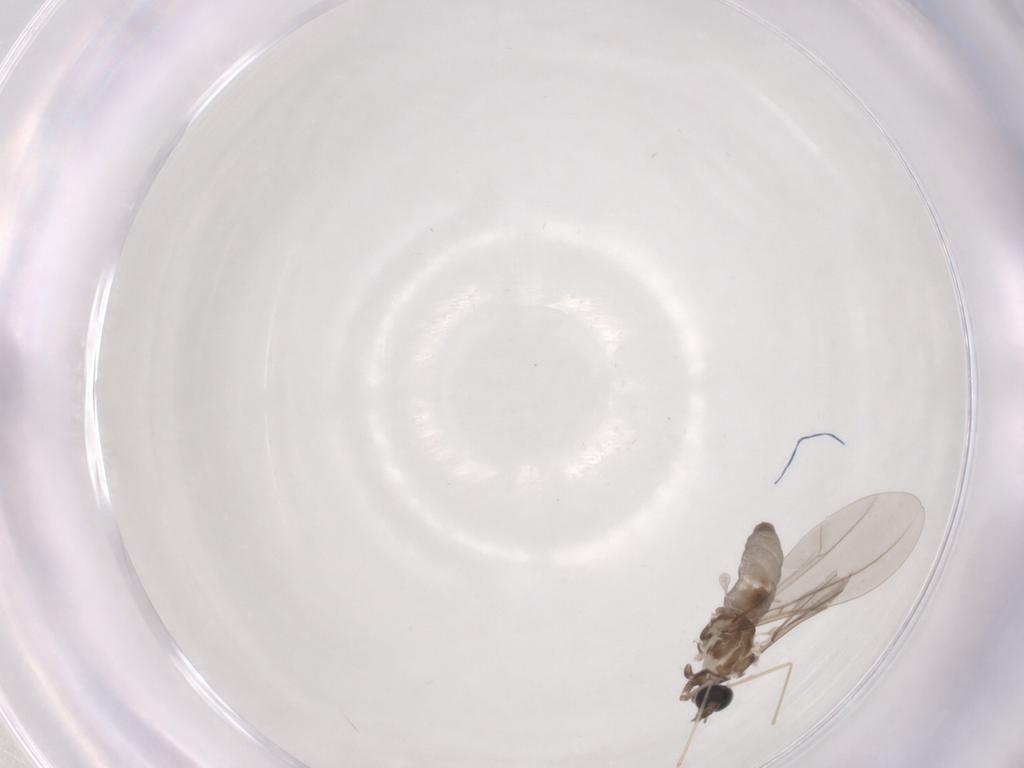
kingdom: Animalia
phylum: Arthropoda
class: Insecta
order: Diptera
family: Cecidomyiidae
